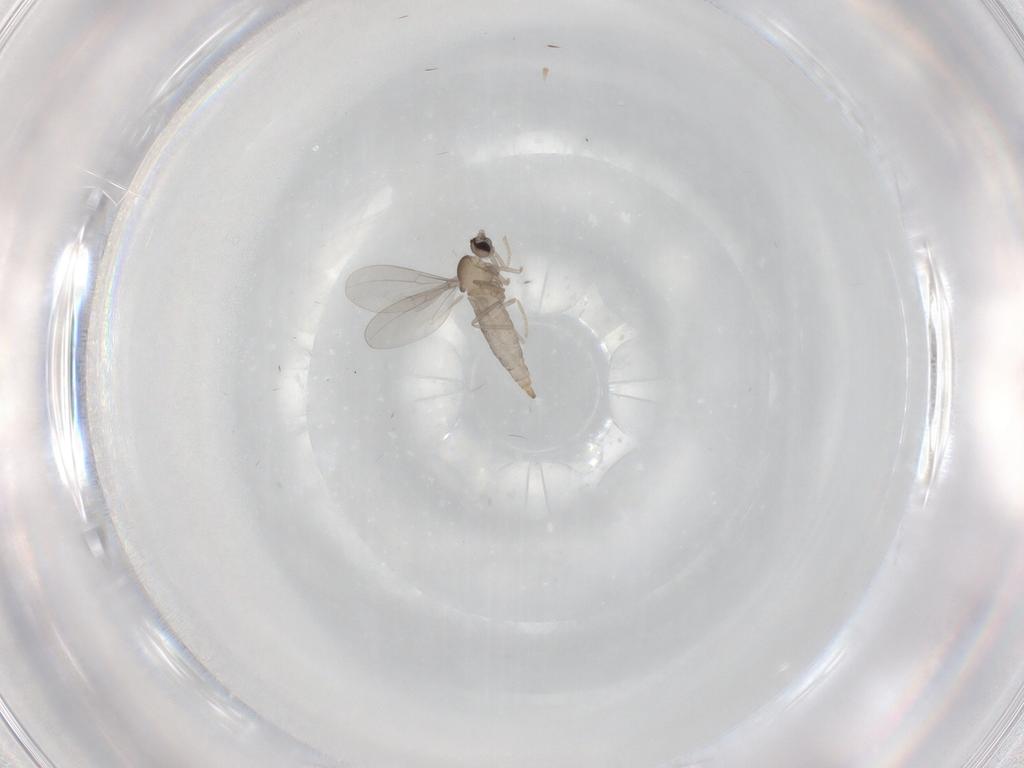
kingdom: Animalia
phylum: Arthropoda
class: Insecta
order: Diptera
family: Cecidomyiidae
